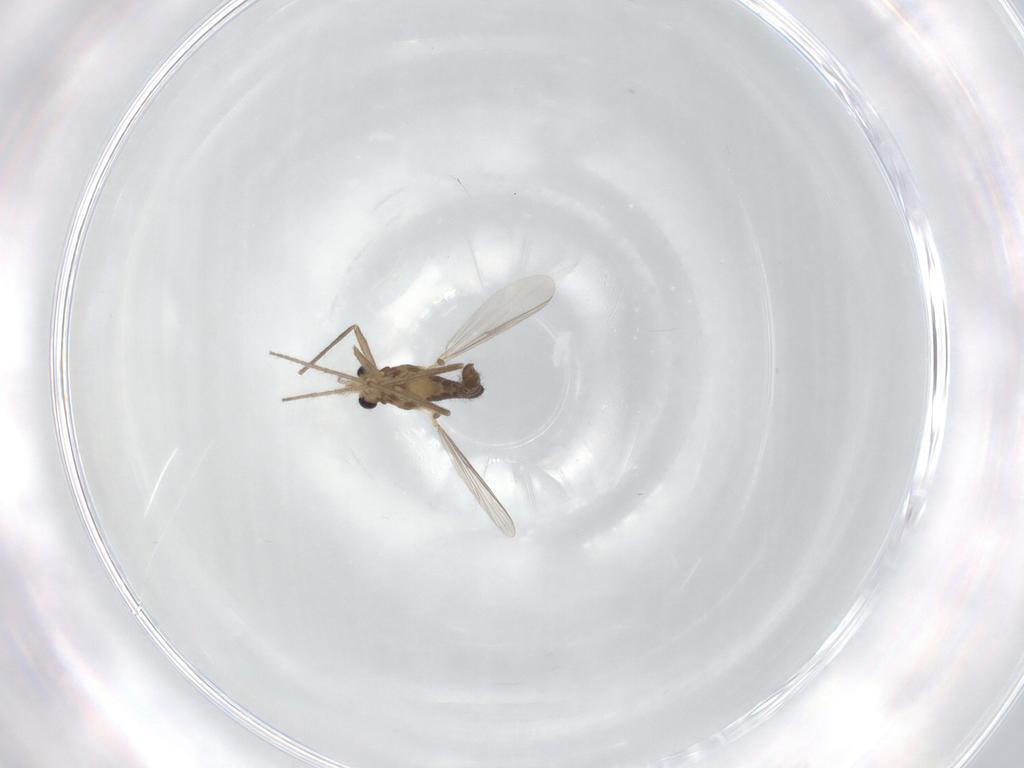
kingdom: Animalia
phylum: Arthropoda
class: Insecta
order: Diptera
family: Chironomidae
